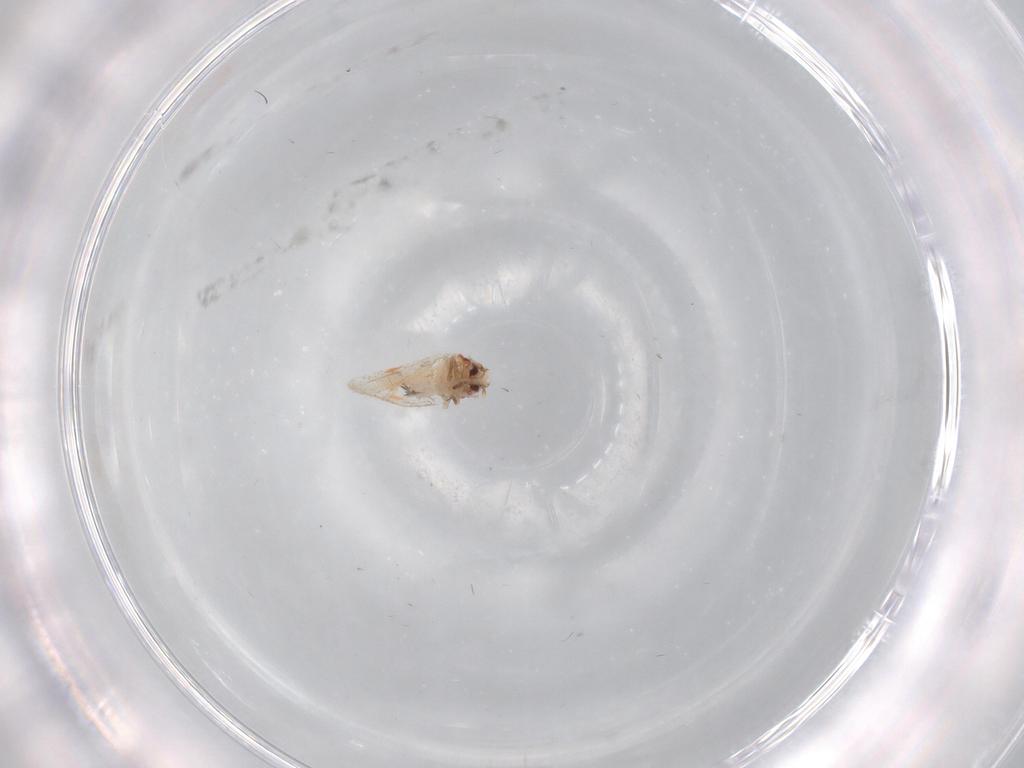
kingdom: Animalia
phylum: Arthropoda
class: Insecta
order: Hemiptera
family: Aleyrodidae
